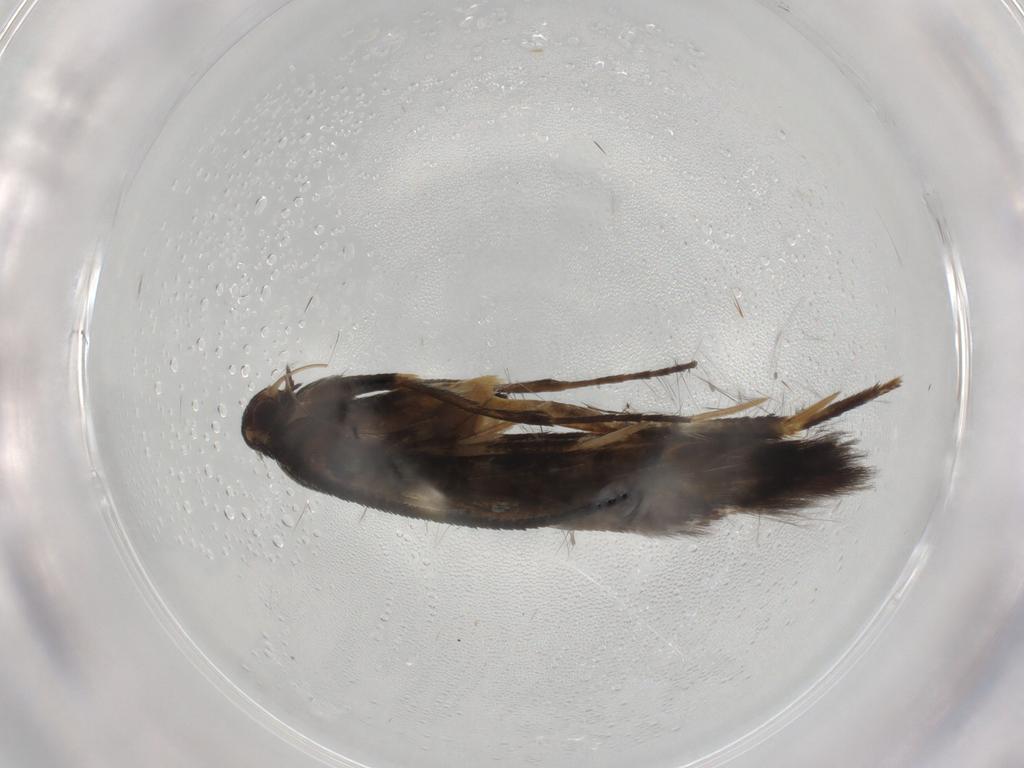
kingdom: Animalia
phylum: Arthropoda
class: Insecta
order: Lepidoptera
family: Heliodinidae
